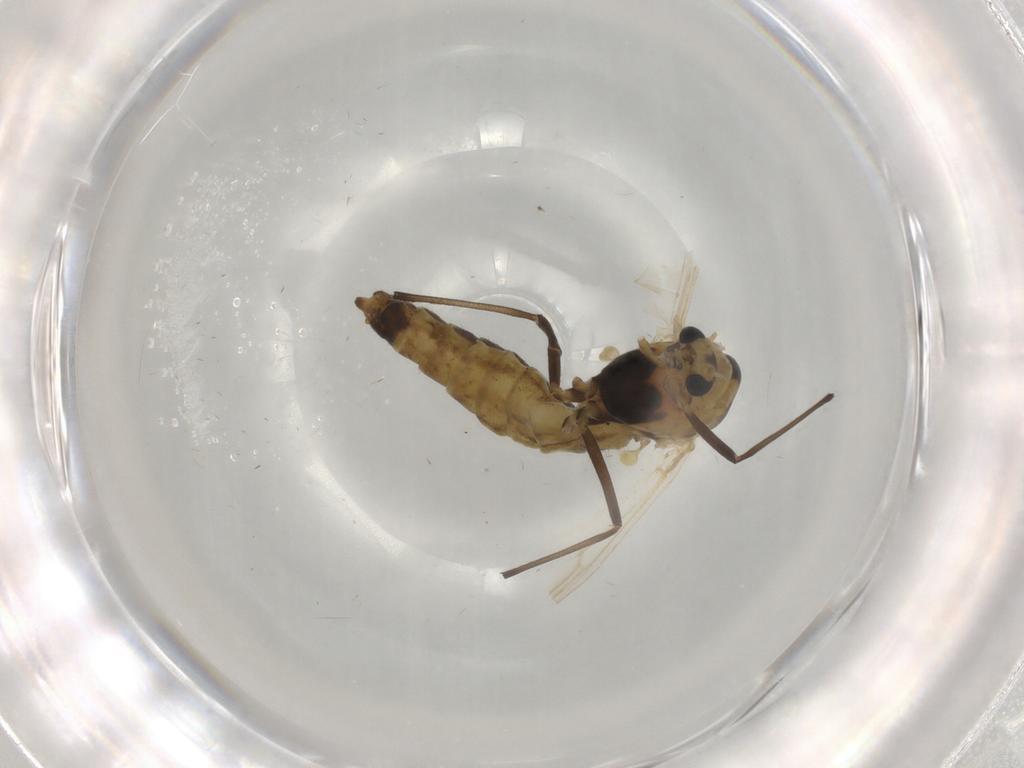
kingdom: Animalia
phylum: Arthropoda
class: Insecta
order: Diptera
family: Chironomidae
